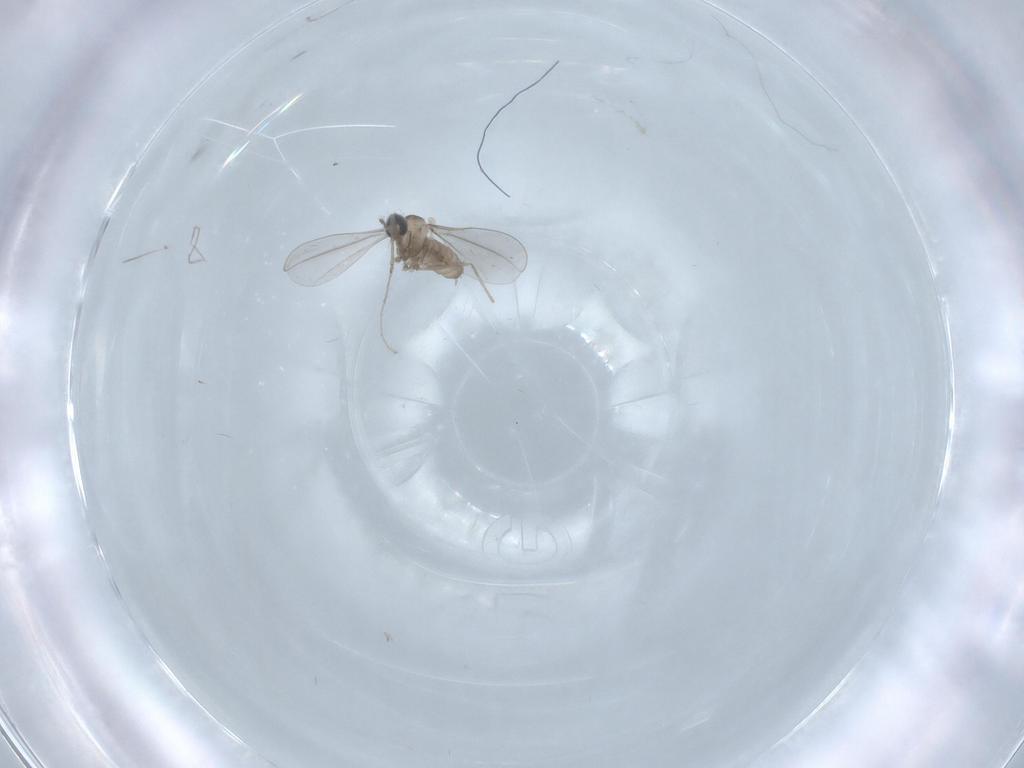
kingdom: Animalia
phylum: Arthropoda
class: Insecta
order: Diptera
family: Cecidomyiidae
